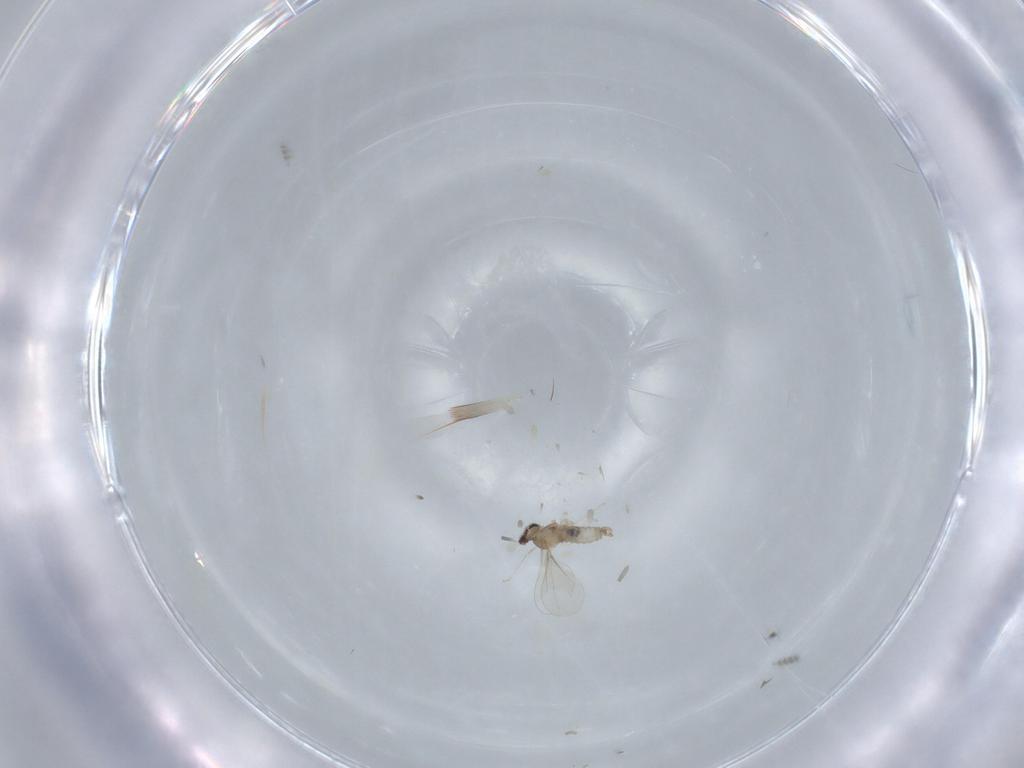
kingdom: Animalia
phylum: Arthropoda
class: Insecta
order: Diptera
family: Cecidomyiidae
